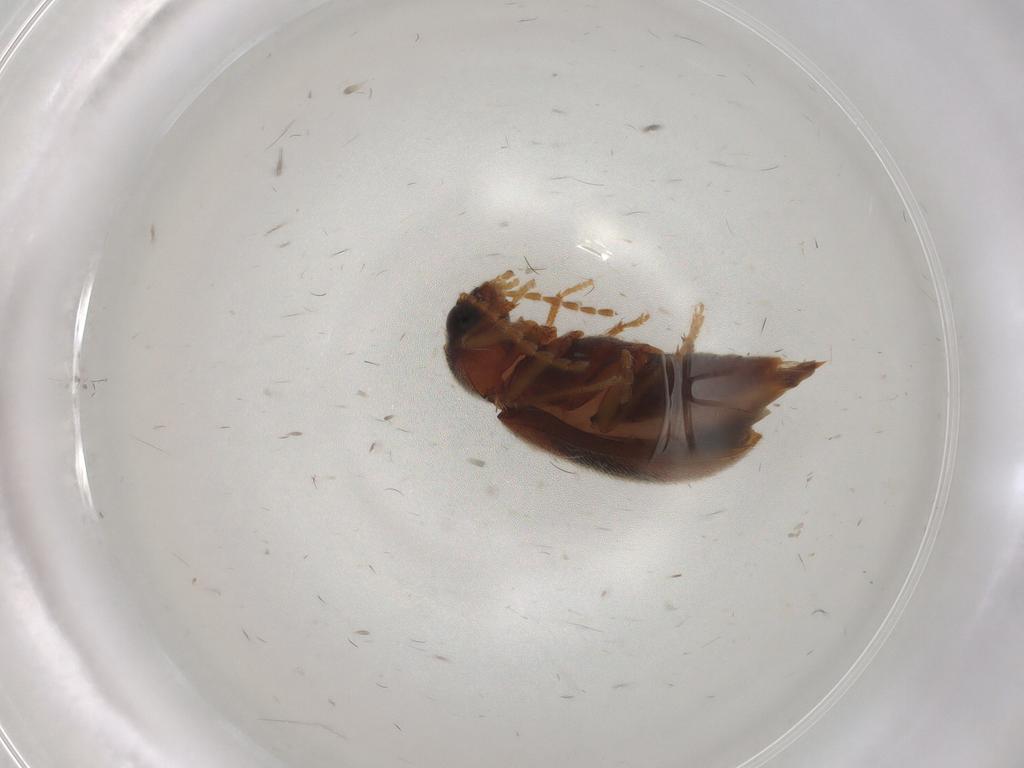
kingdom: Animalia
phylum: Arthropoda
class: Insecta
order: Coleoptera
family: Ptilodactylidae
